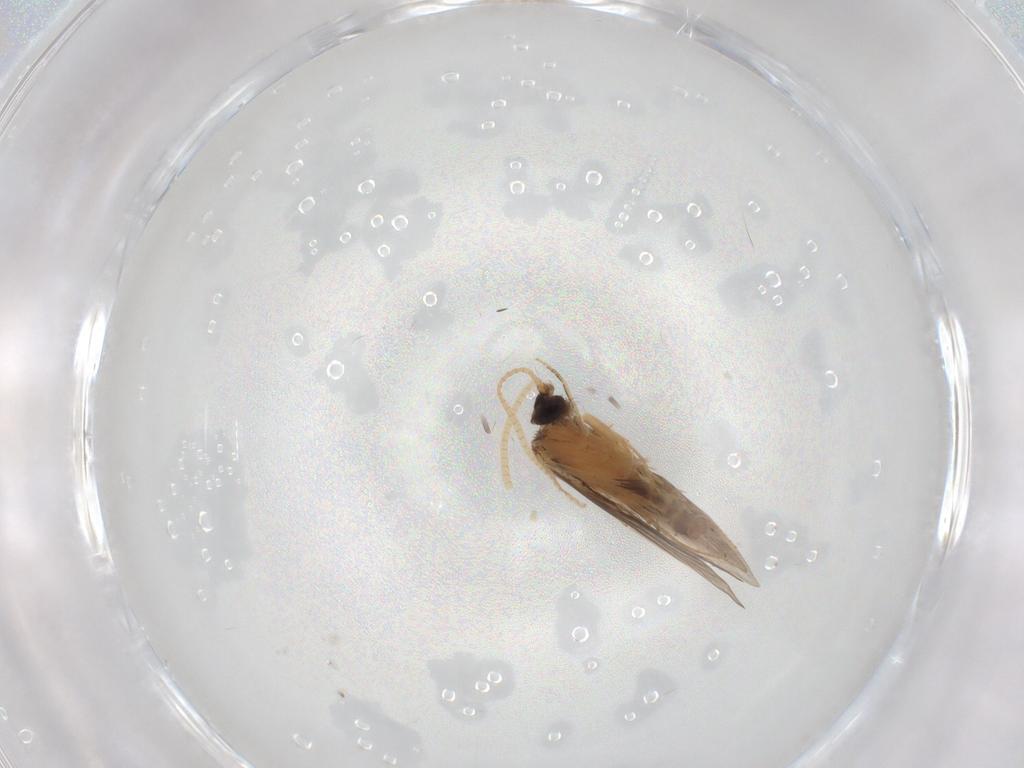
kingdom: Animalia
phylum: Arthropoda
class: Insecta
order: Trichoptera
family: Hydroptilidae
